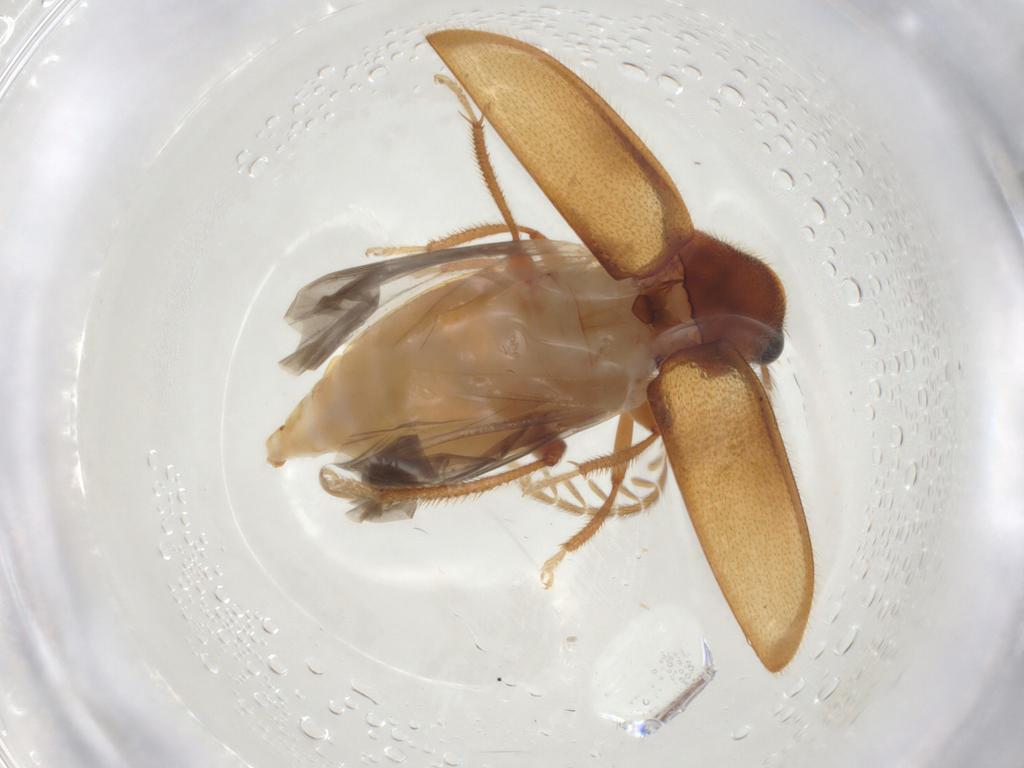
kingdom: Animalia
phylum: Arthropoda
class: Insecta
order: Coleoptera
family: Ptilodactylidae
